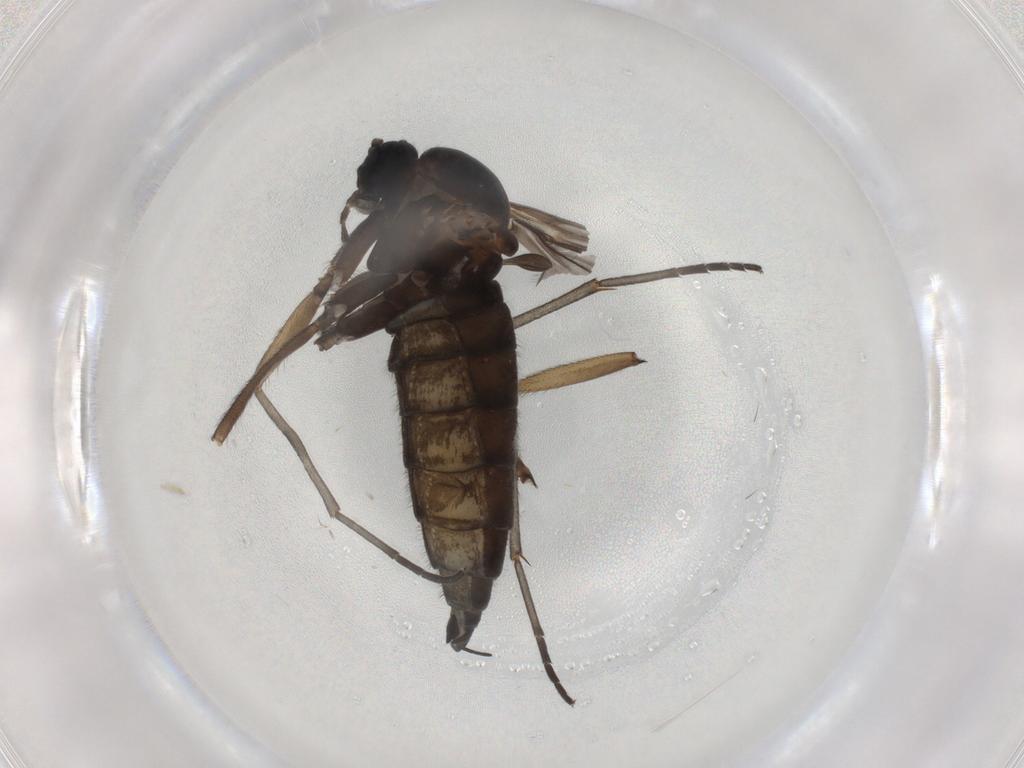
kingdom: Animalia
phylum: Arthropoda
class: Insecta
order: Diptera
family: Sciaridae
